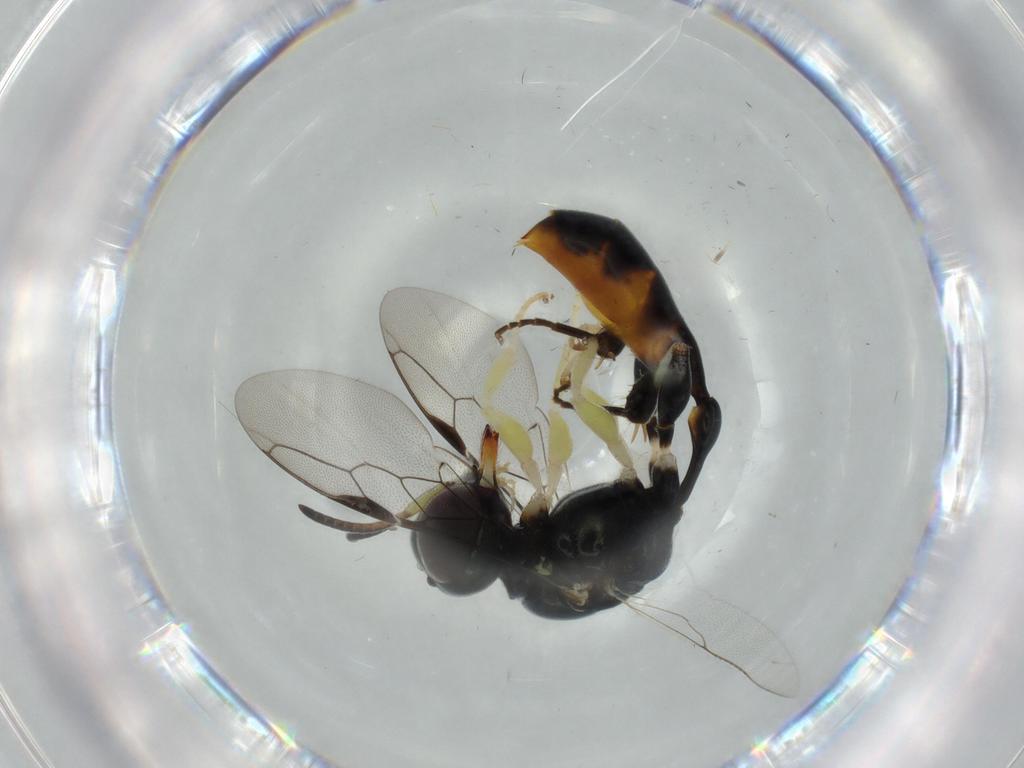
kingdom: Animalia
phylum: Arthropoda
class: Insecta
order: Hymenoptera
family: Crabronidae
